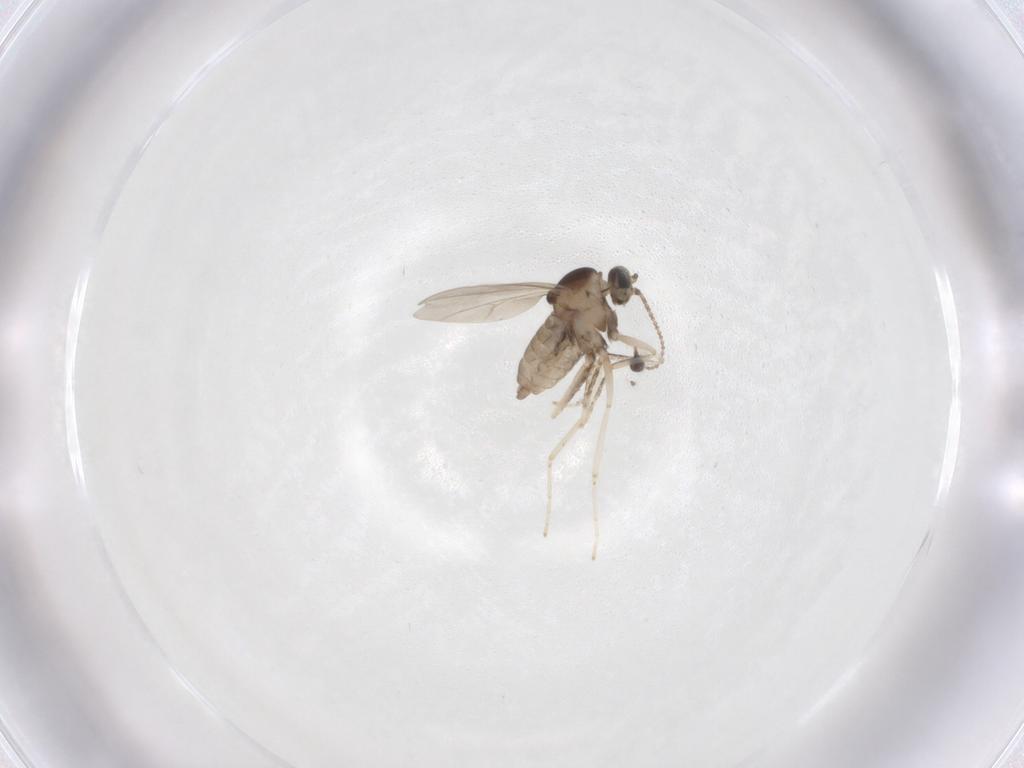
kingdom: Animalia
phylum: Arthropoda
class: Insecta
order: Diptera
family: Cecidomyiidae
